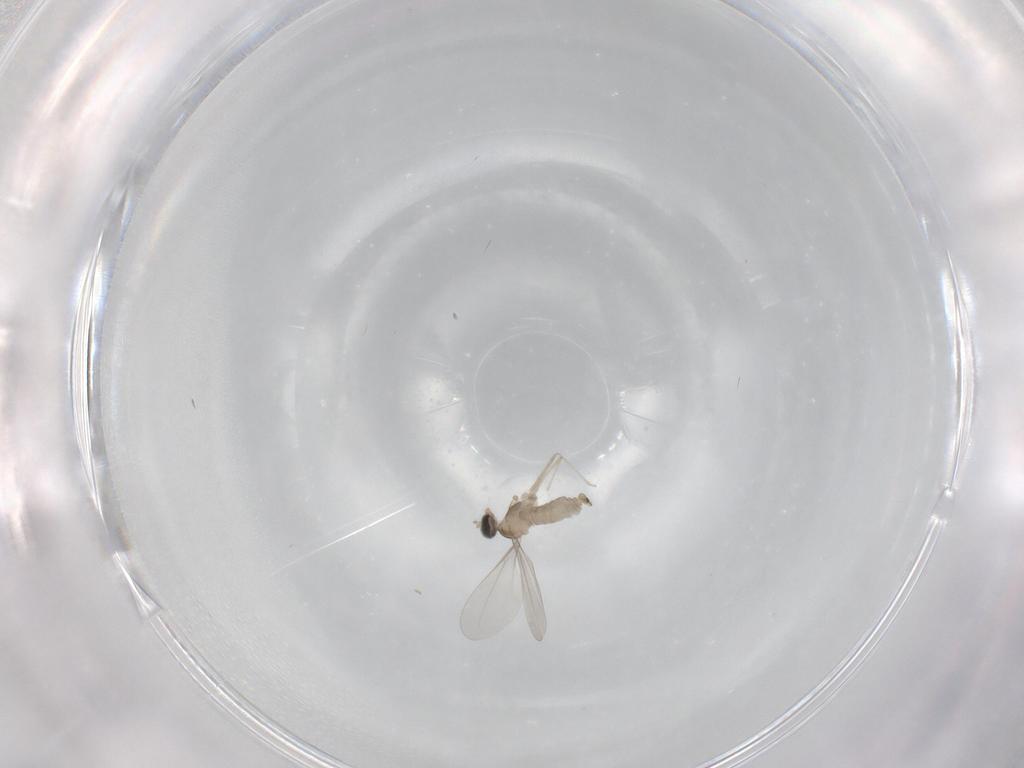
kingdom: Animalia
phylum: Arthropoda
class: Insecta
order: Diptera
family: Cecidomyiidae
